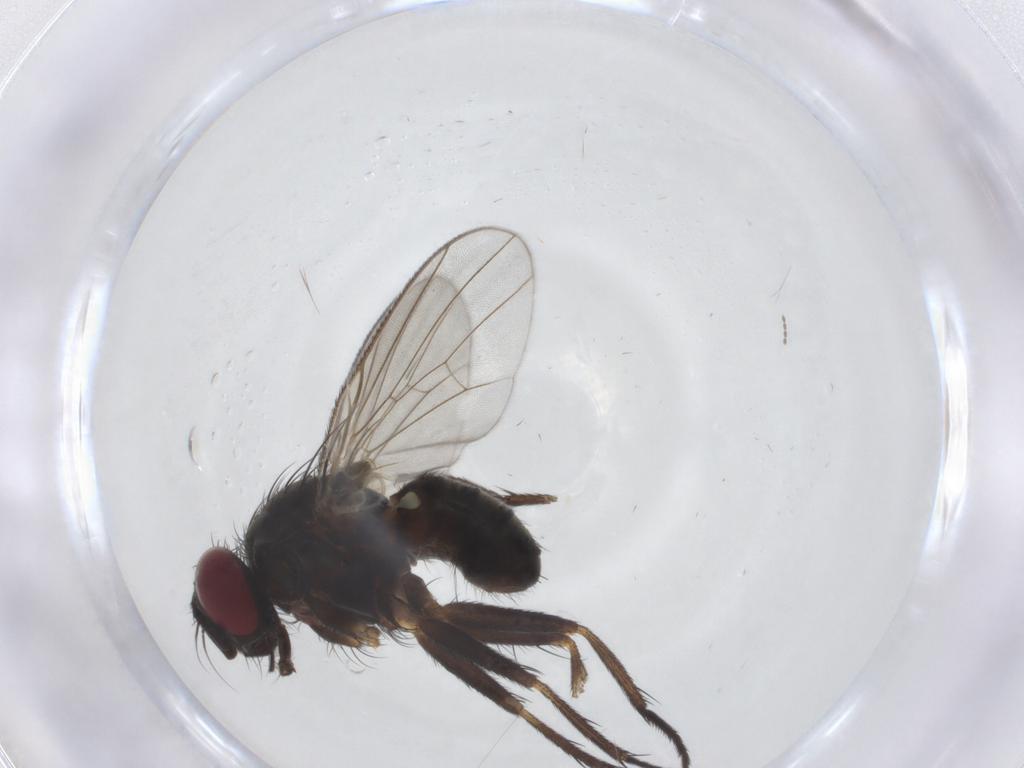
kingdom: Animalia
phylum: Arthropoda
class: Insecta
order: Diptera
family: Muscidae
